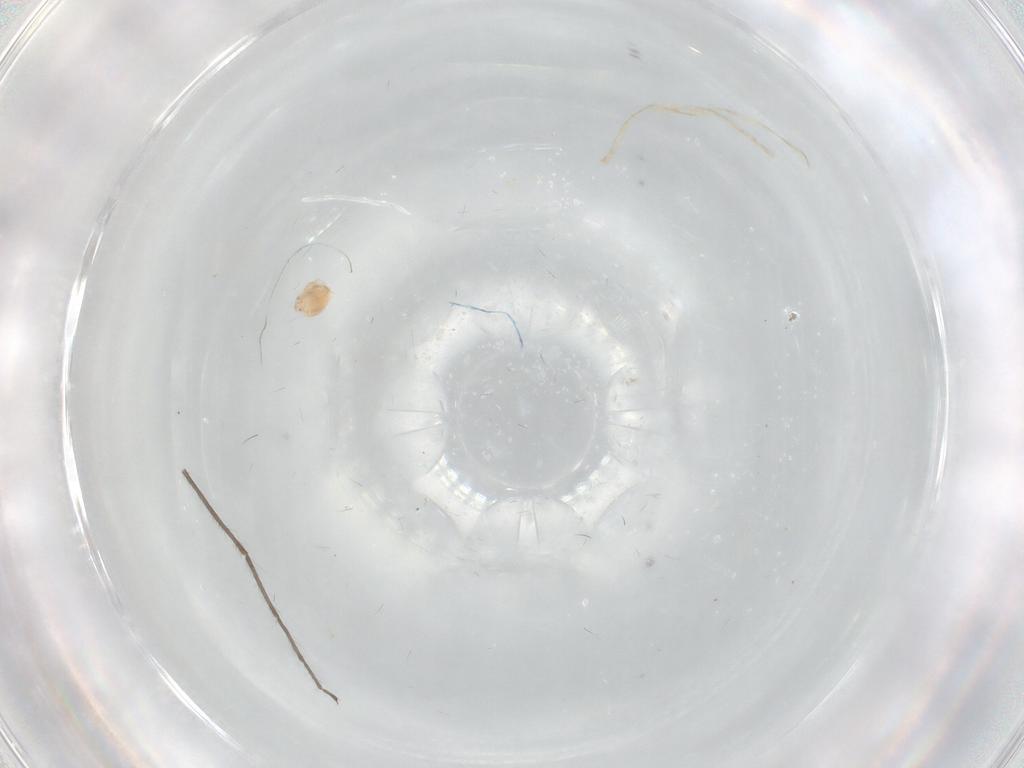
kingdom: Animalia
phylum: Arthropoda
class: Arachnida
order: Trombidiformes
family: Hygrobatidae
